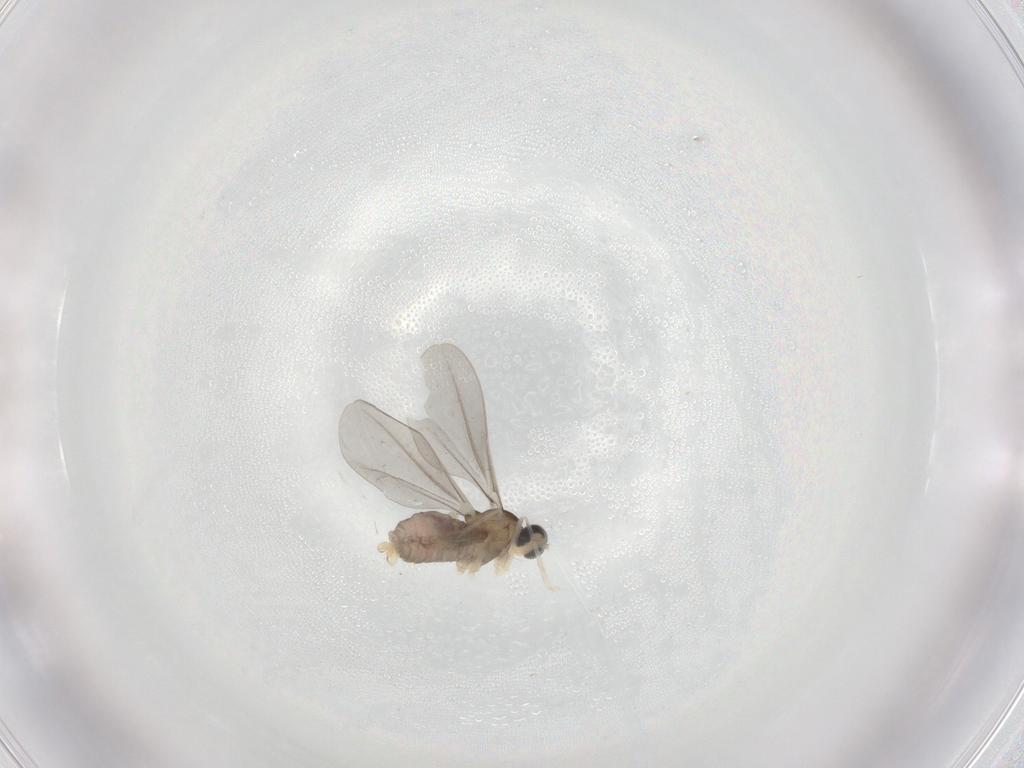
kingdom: Animalia
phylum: Arthropoda
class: Insecta
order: Diptera
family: Cecidomyiidae
